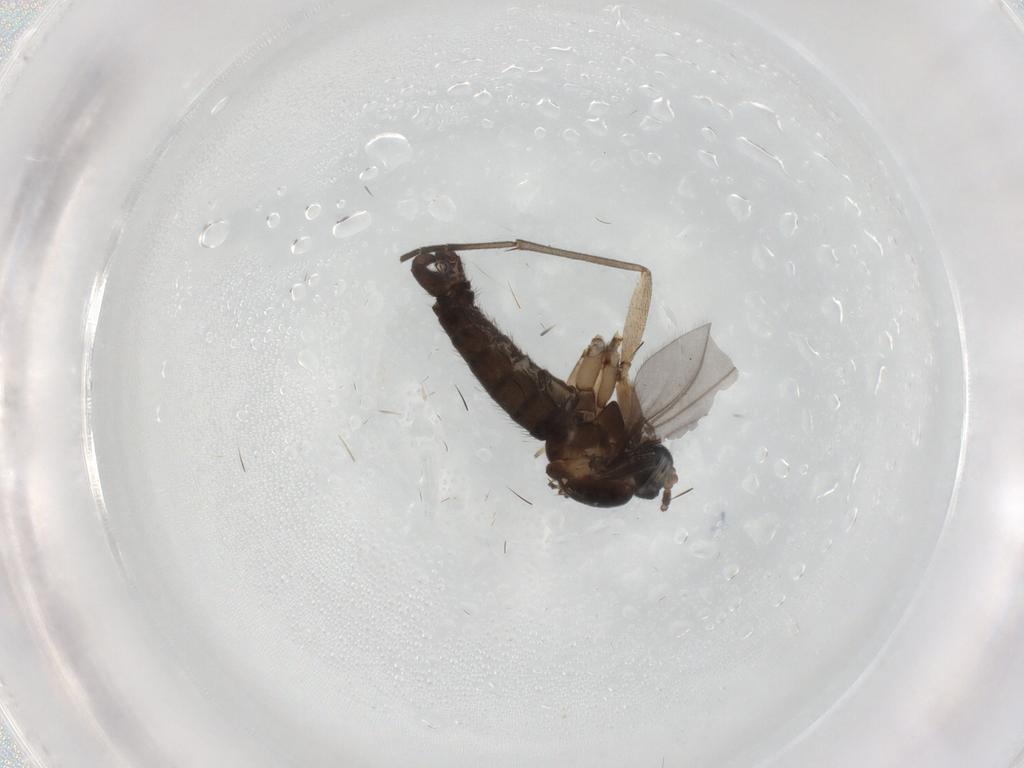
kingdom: Animalia
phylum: Arthropoda
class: Insecta
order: Diptera
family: Sciaridae
